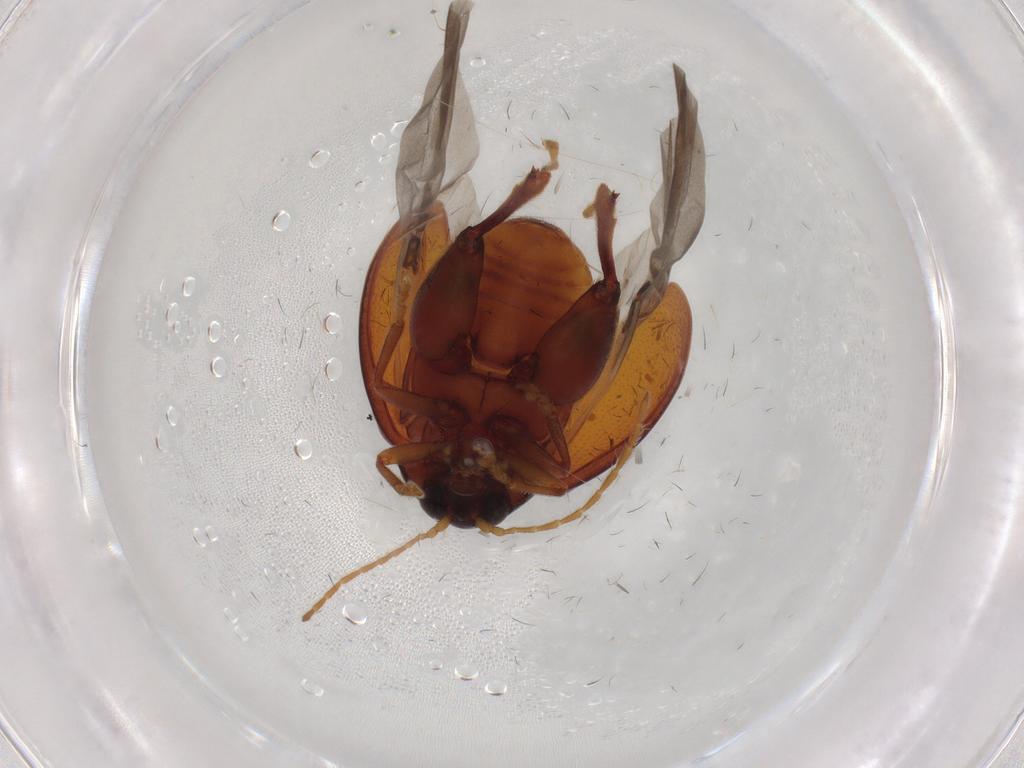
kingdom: Animalia
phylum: Arthropoda
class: Insecta
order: Coleoptera
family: Chrysomelidae
